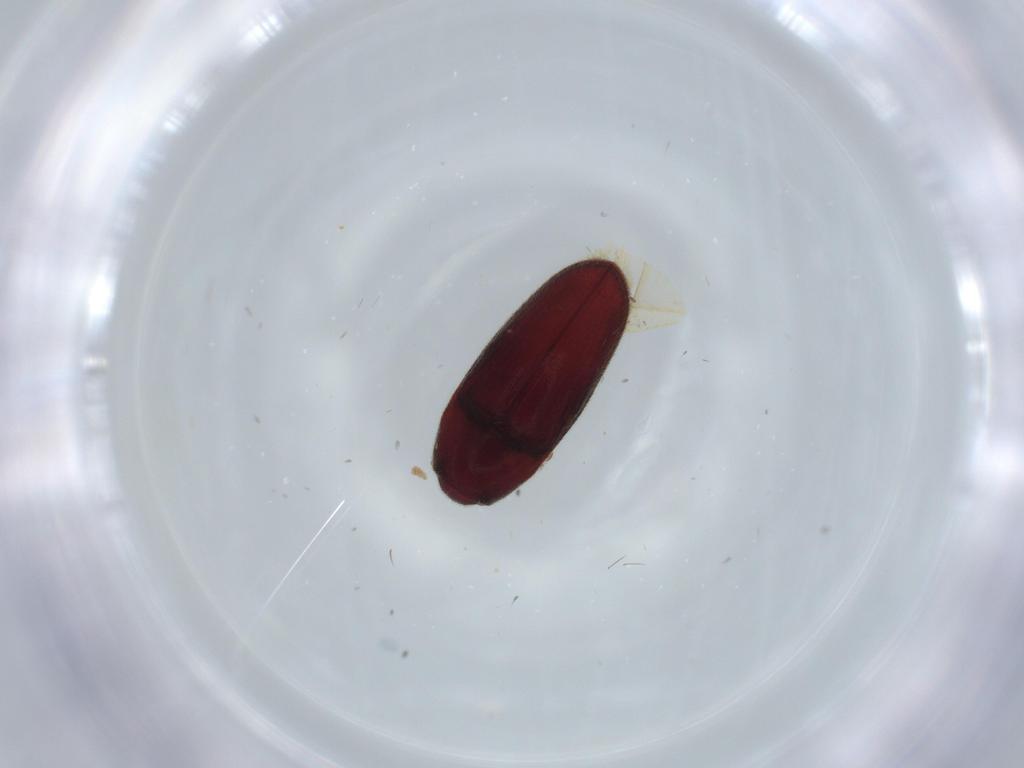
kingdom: Animalia
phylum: Arthropoda
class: Insecta
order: Coleoptera
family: Throscidae
